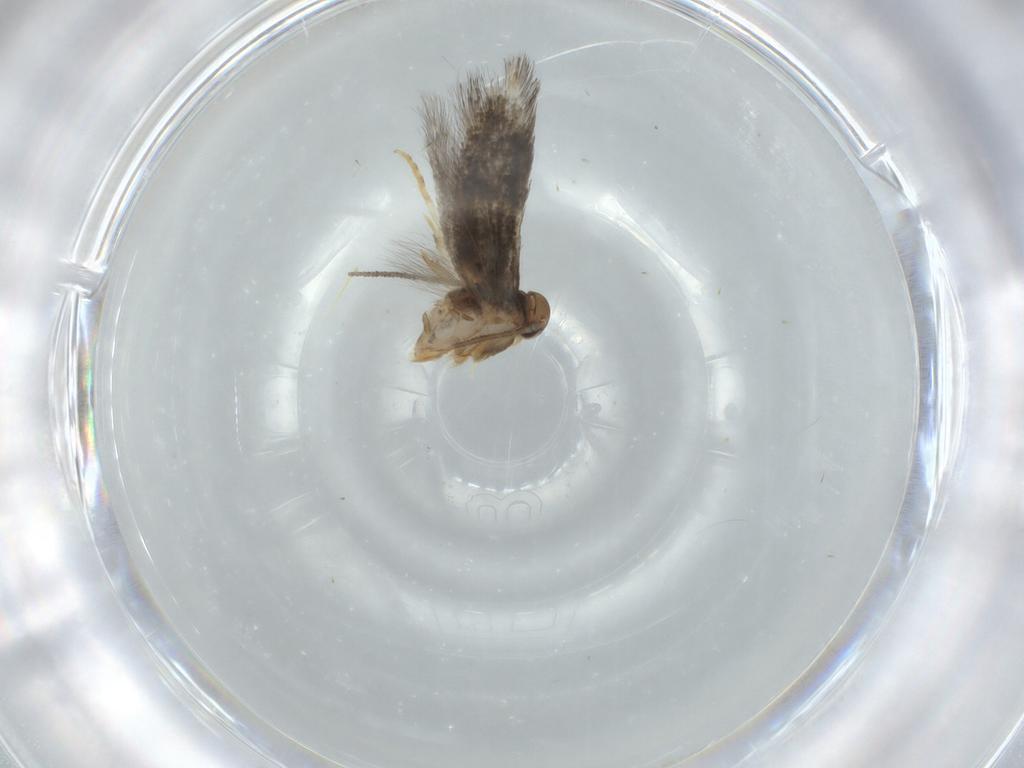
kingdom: Animalia
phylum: Arthropoda
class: Insecta
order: Lepidoptera
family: Elachistidae
